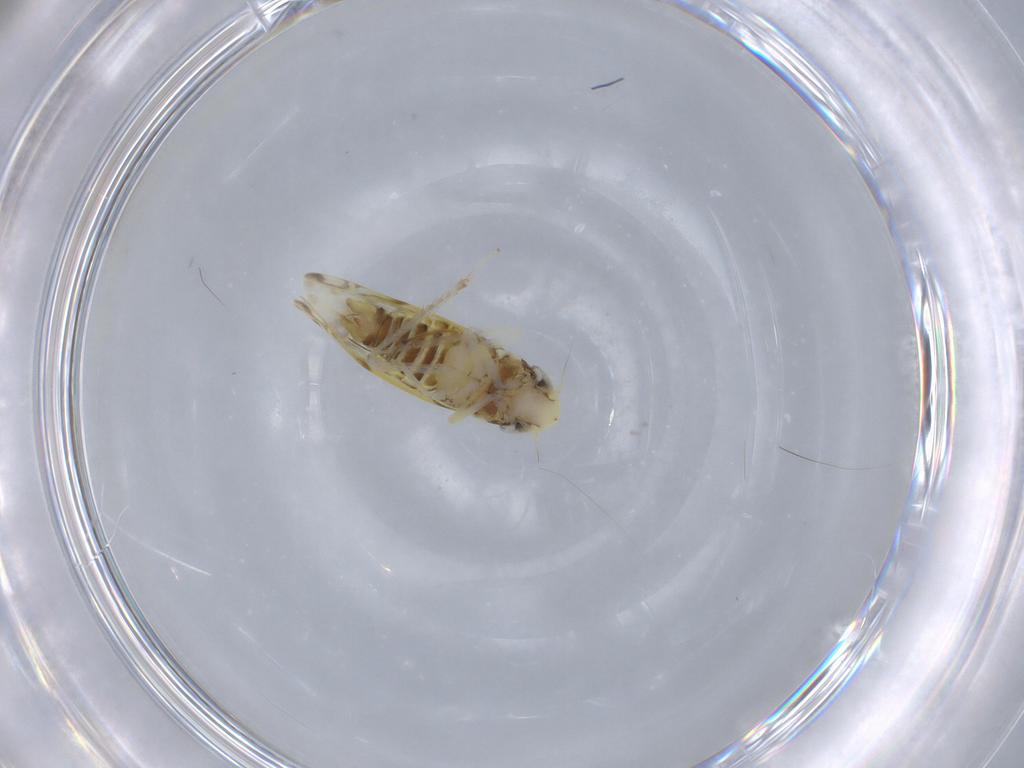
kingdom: Animalia
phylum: Arthropoda
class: Insecta
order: Hemiptera
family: Cicadellidae
